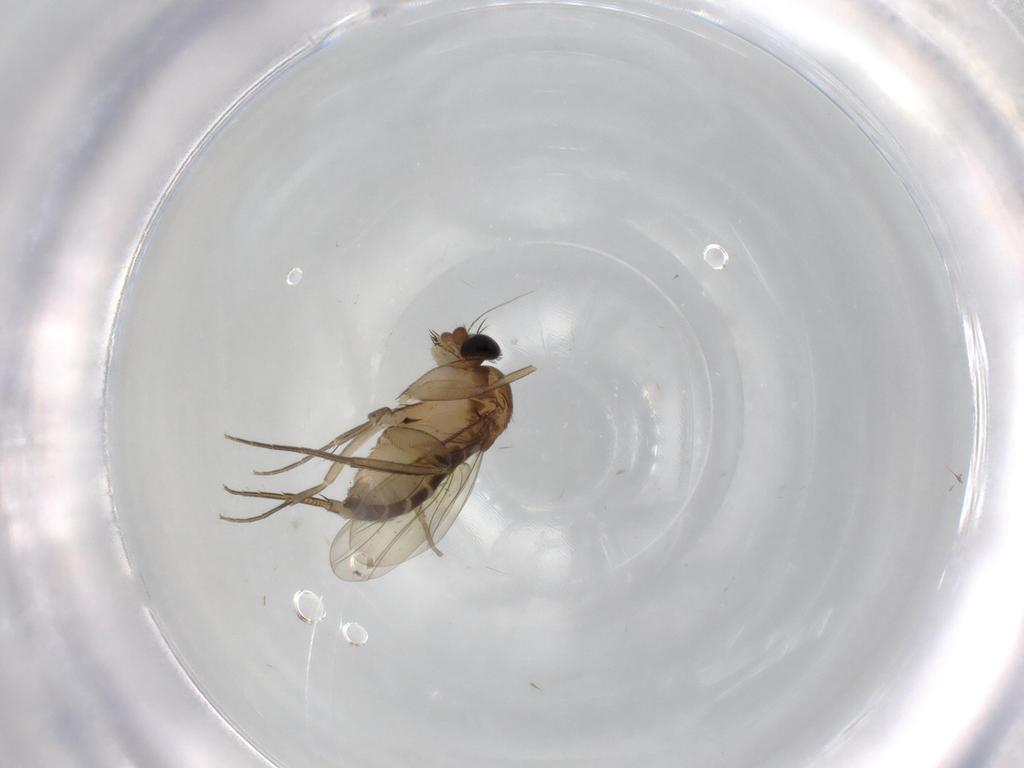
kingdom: Animalia
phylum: Arthropoda
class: Insecta
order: Diptera
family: Phoridae
